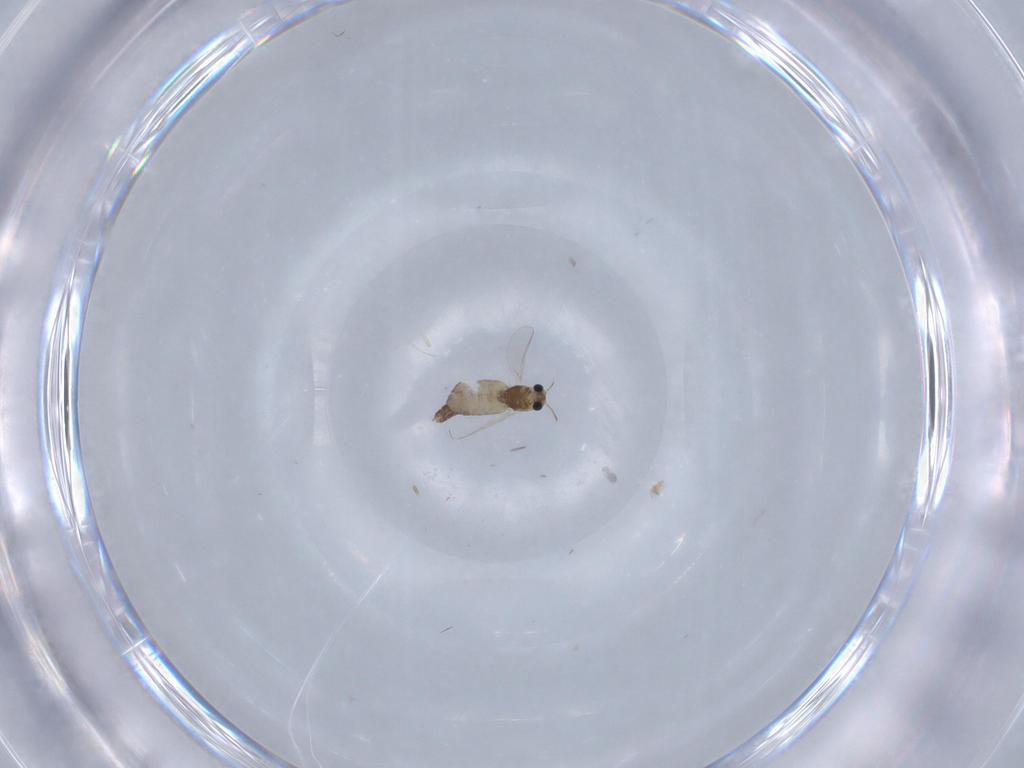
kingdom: Animalia
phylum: Arthropoda
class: Insecta
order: Diptera
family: Chironomidae
